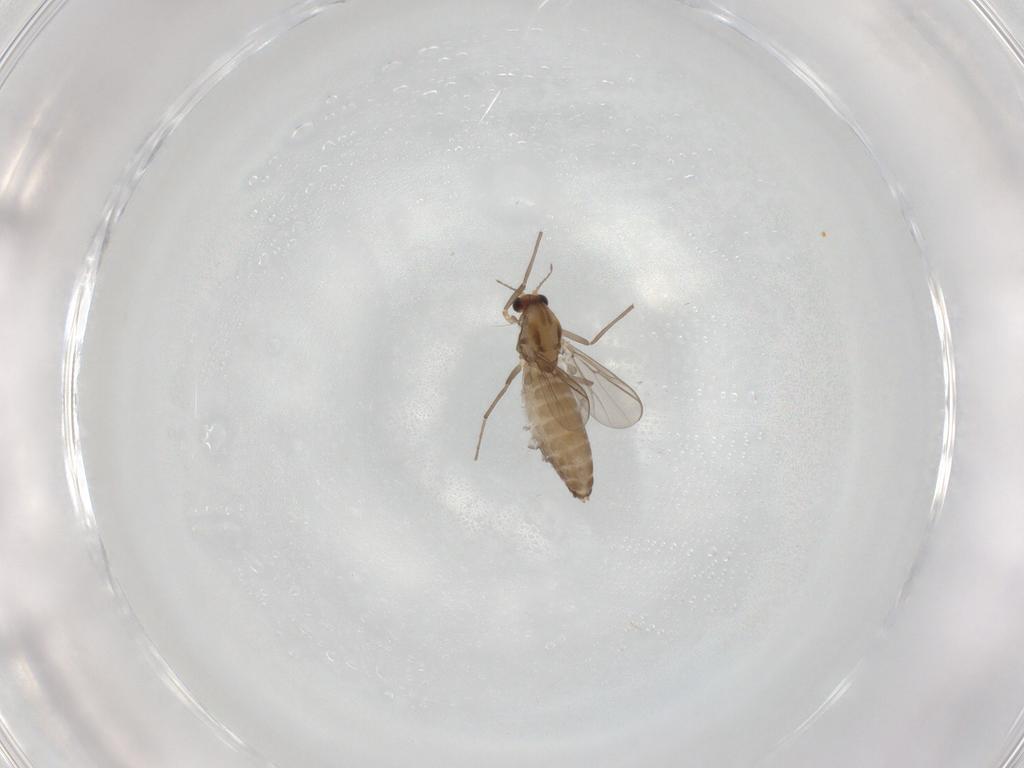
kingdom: Animalia
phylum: Arthropoda
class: Insecta
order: Diptera
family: Chironomidae
